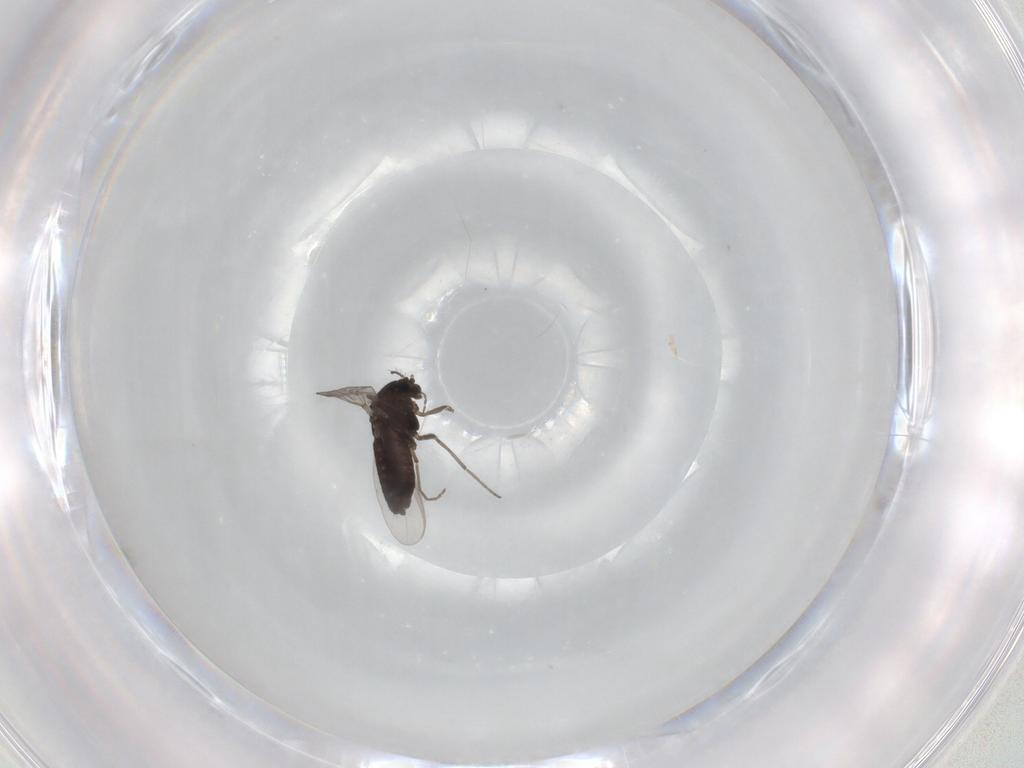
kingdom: Animalia
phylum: Arthropoda
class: Insecta
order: Diptera
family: Chironomidae
